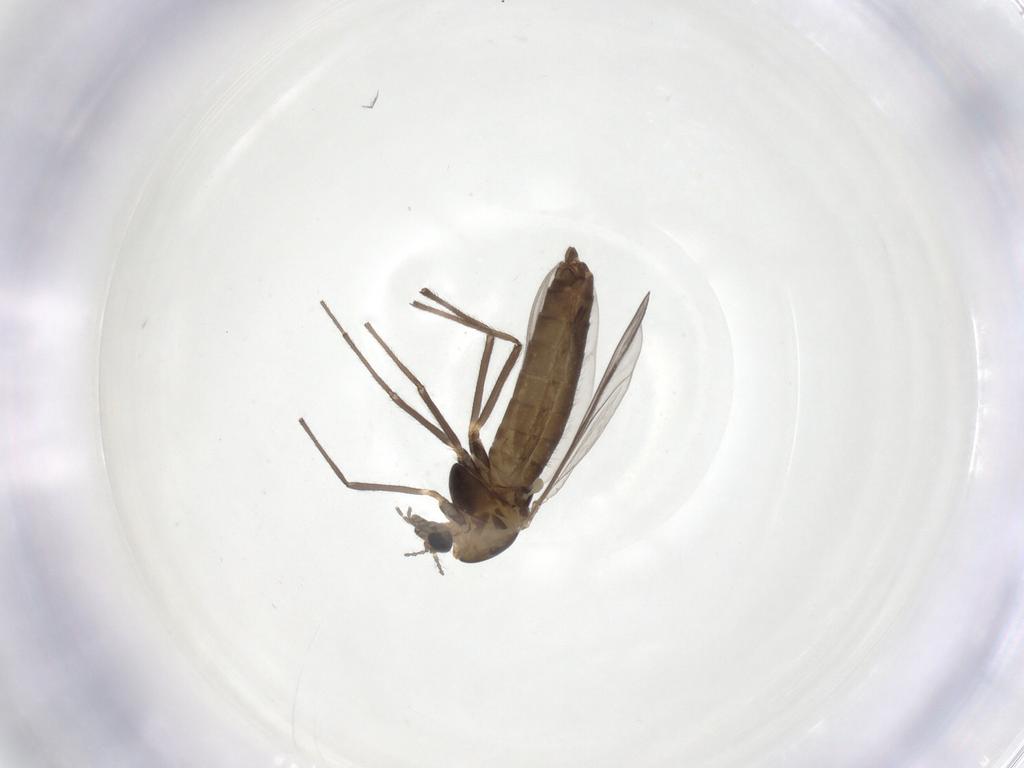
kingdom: Animalia
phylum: Arthropoda
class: Insecta
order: Diptera
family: Chironomidae
